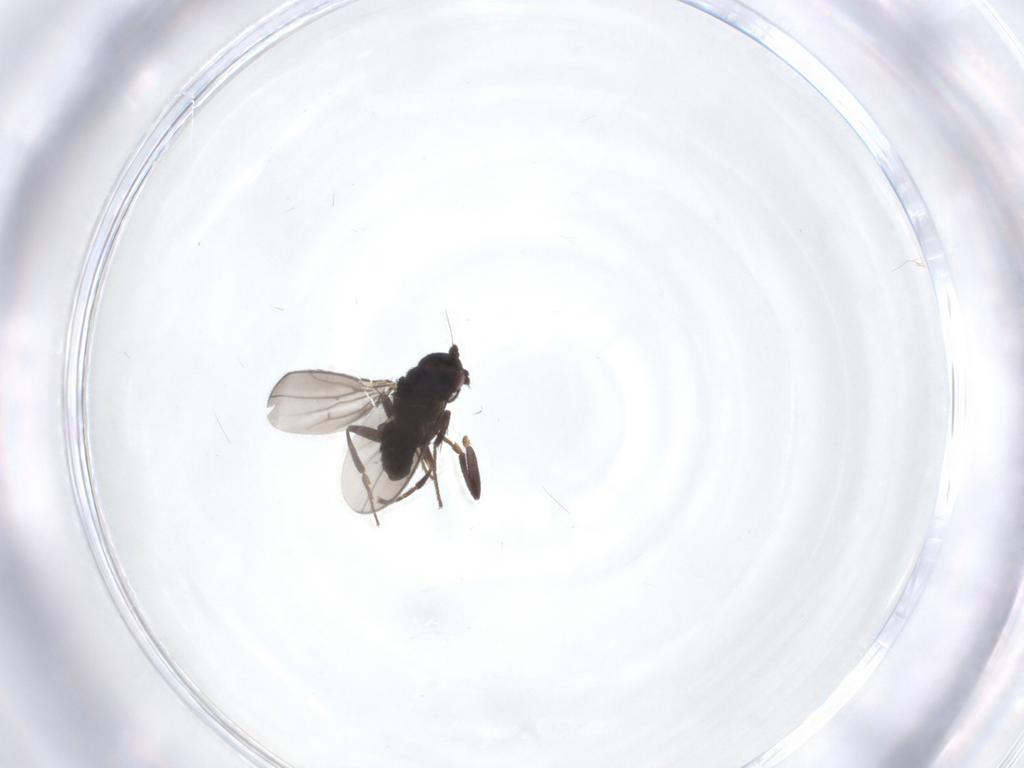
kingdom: Animalia
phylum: Arthropoda
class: Insecta
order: Diptera
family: Sphaeroceridae
